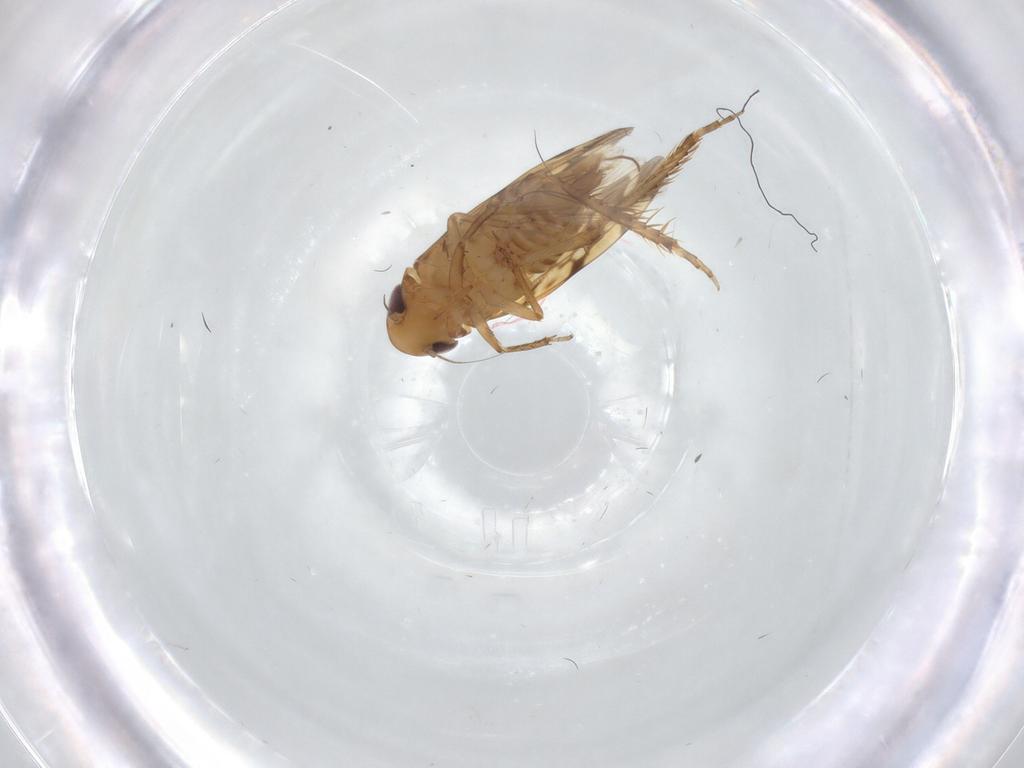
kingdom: Animalia
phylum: Arthropoda
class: Insecta
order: Hemiptera
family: Cicadellidae
